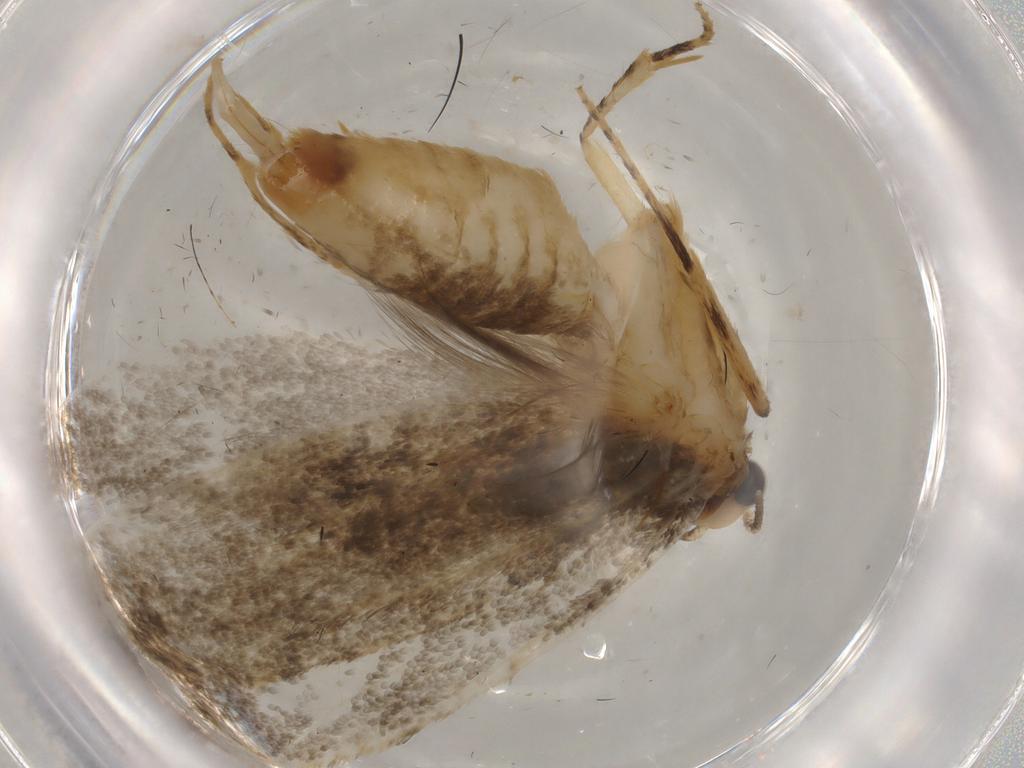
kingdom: Animalia
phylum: Arthropoda
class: Insecta
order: Lepidoptera
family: Tineidae
